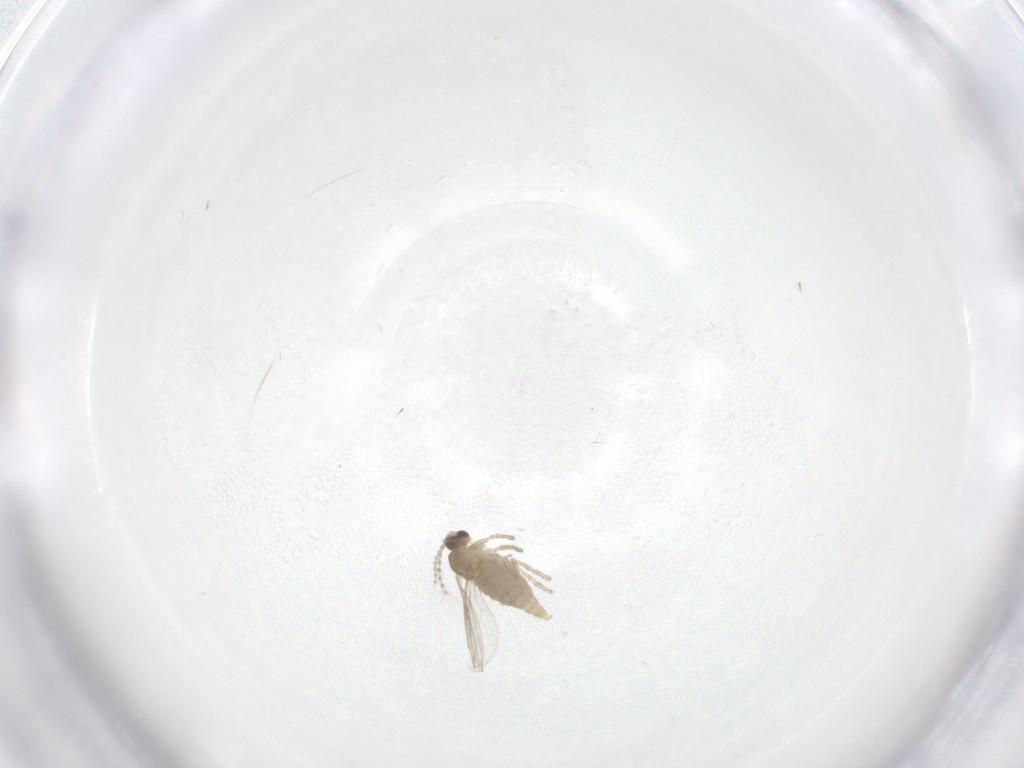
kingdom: Animalia
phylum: Arthropoda
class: Insecta
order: Diptera
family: Cecidomyiidae
